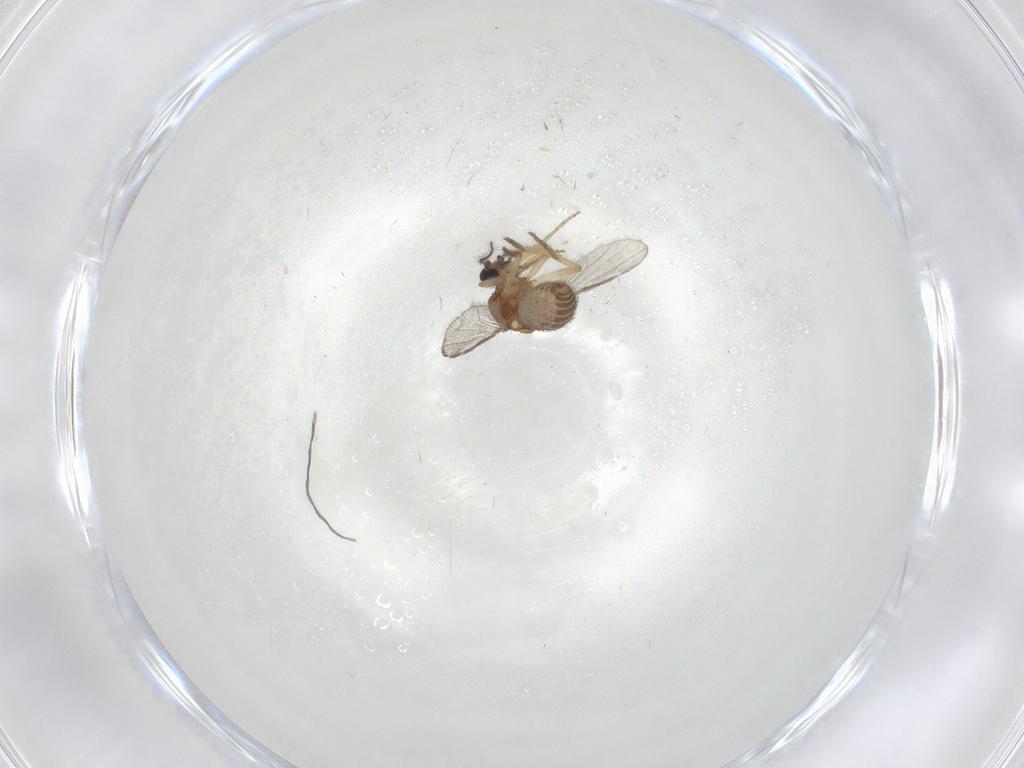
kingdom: Animalia
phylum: Arthropoda
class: Insecta
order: Diptera
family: Ceratopogonidae
